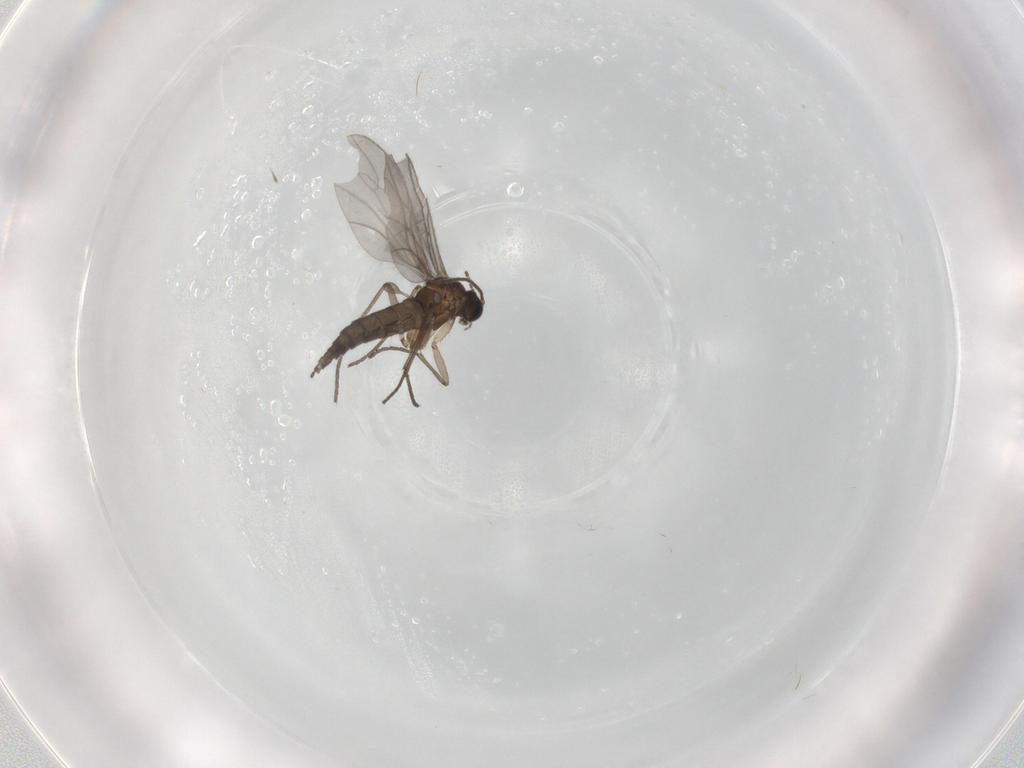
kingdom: Animalia
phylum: Arthropoda
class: Insecta
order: Diptera
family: Sciaridae
